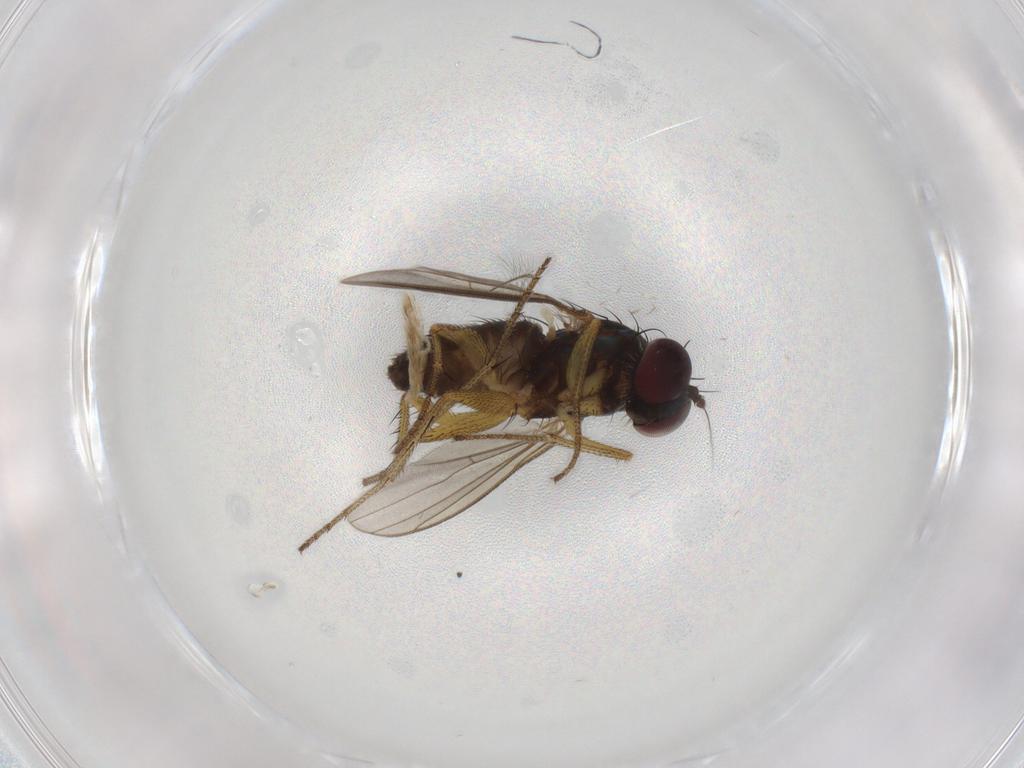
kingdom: Animalia
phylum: Arthropoda
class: Insecta
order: Diptera
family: Dolichopodidae
